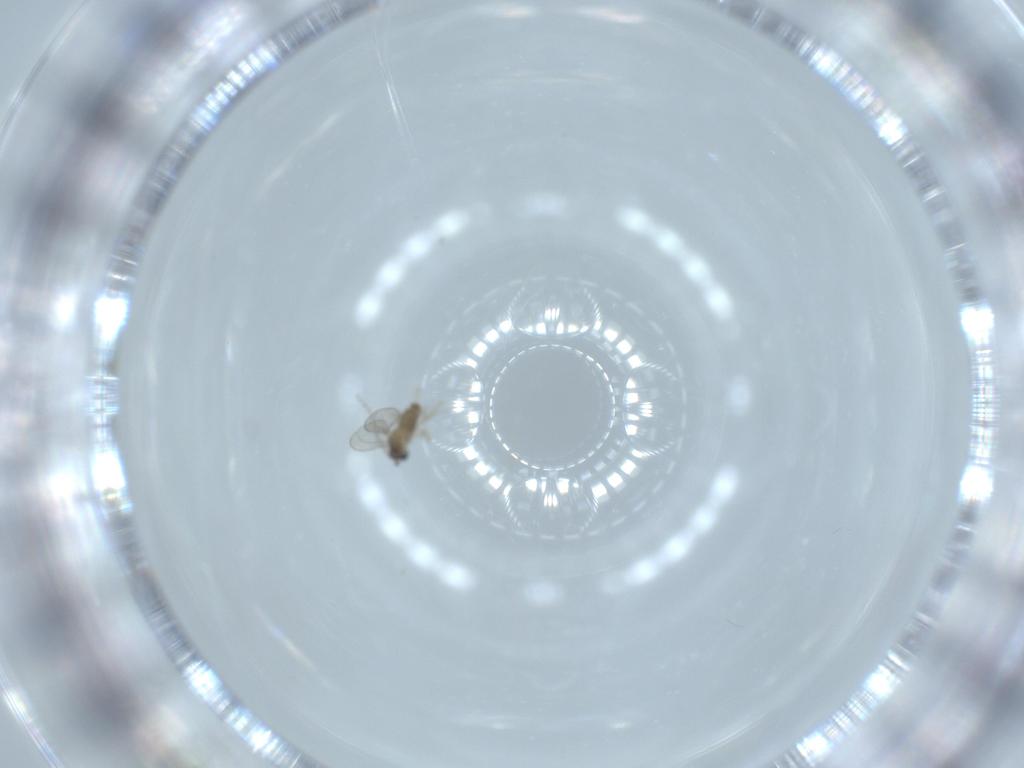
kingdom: Animalia
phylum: Arthropoda
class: Insecta
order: Diptera
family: Cecidomyiidae
